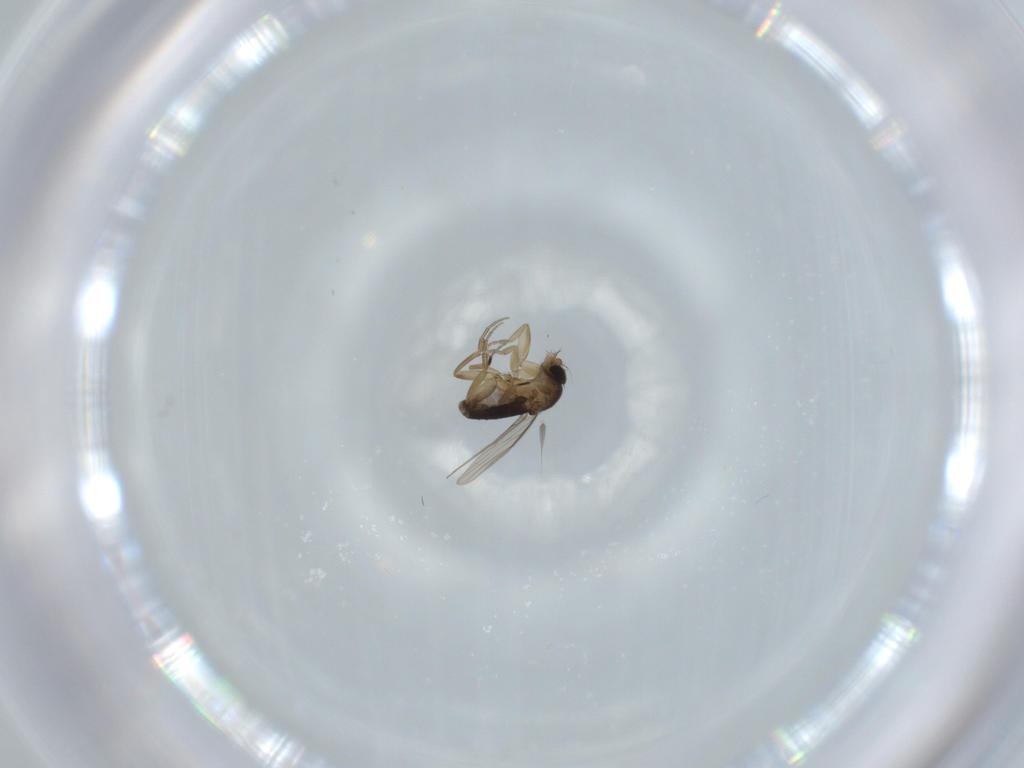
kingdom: Animalia
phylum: Arthropoda
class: Insecta
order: Diptera
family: Phoridae
